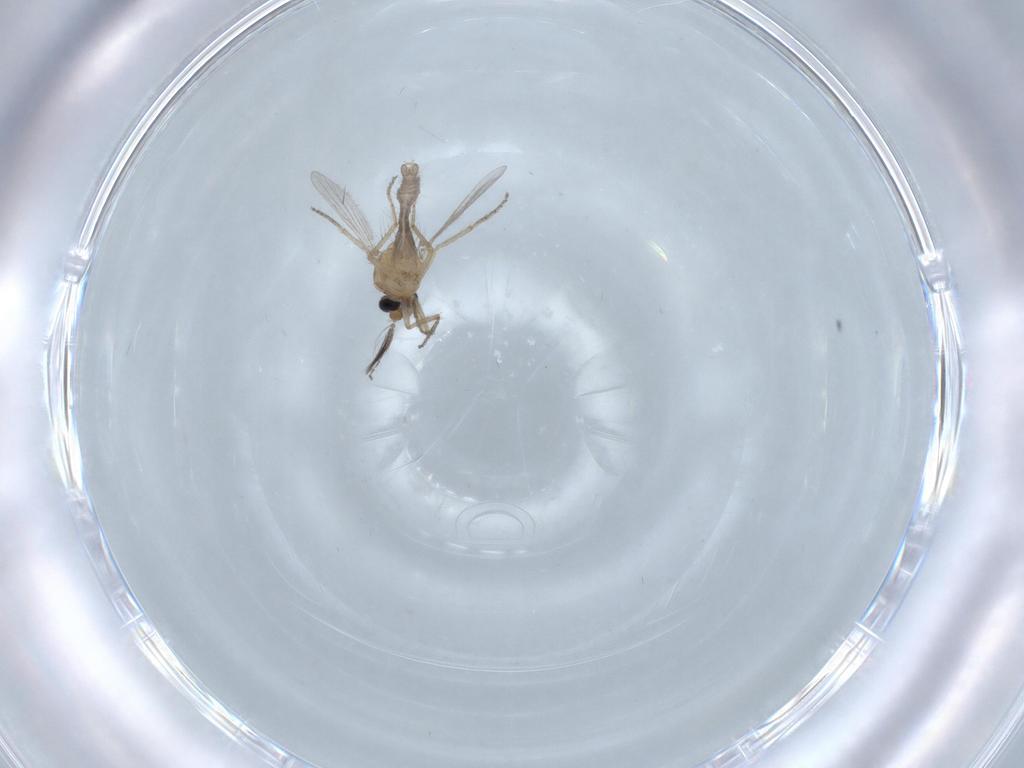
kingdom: Animalia
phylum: Arthropoda
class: Insecta
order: Diptera
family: Ceratopogonidae
